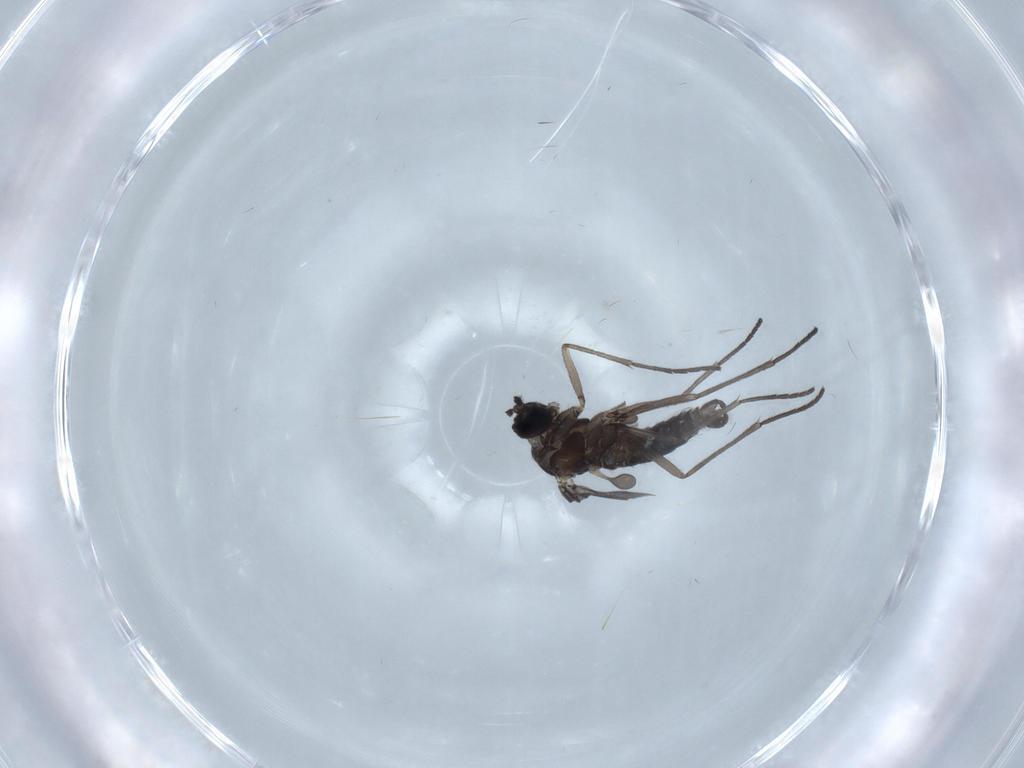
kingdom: Animalia
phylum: Arthropoda
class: Insecta
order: Diptera
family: Sciaridae
